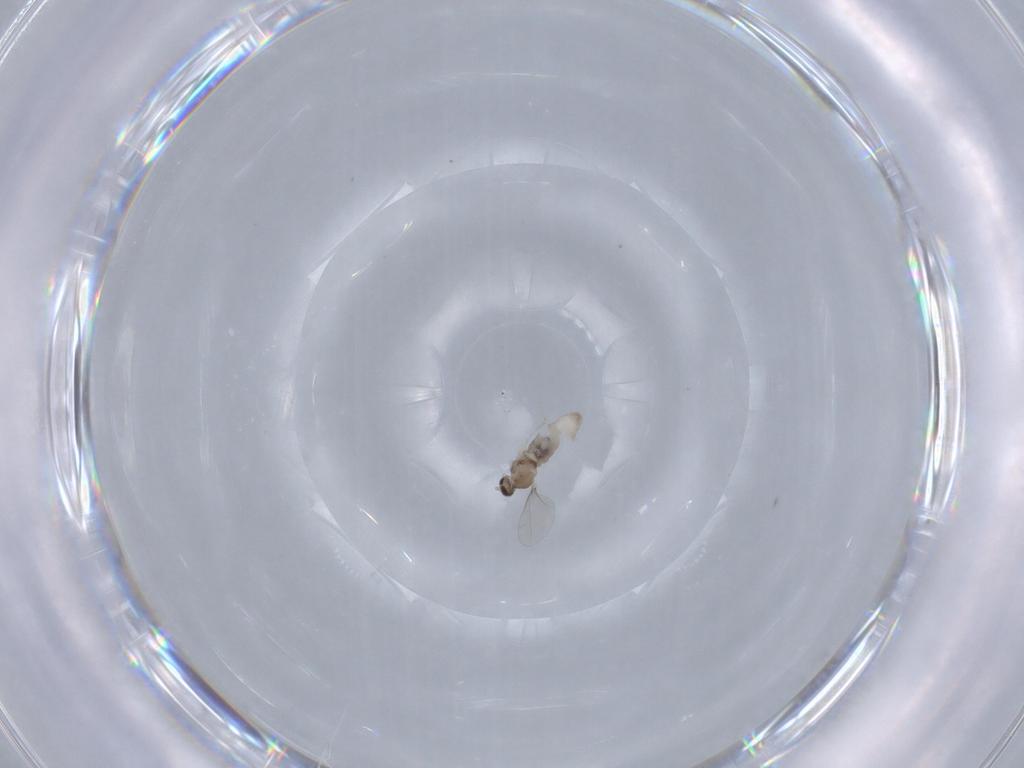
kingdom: Animalia
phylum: Arthropoda
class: Insecta
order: Diptera
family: Cecidomyiidae
